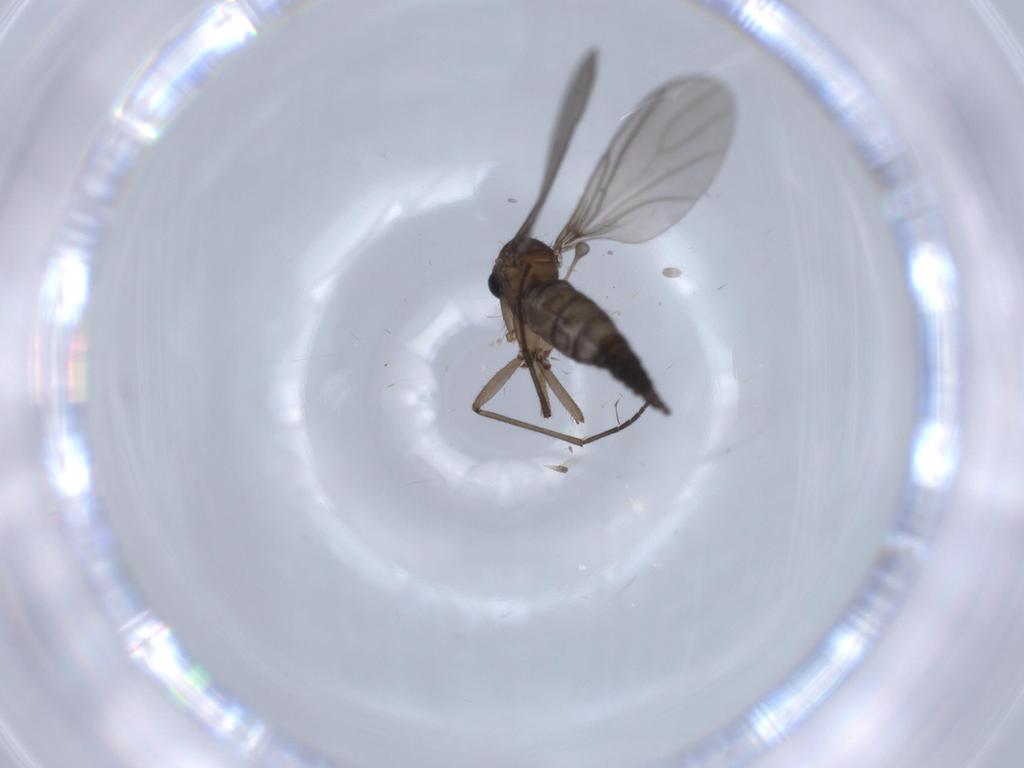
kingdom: Animalia
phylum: Arthropoda
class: Insecta
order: Diptera
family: Sciaridae
